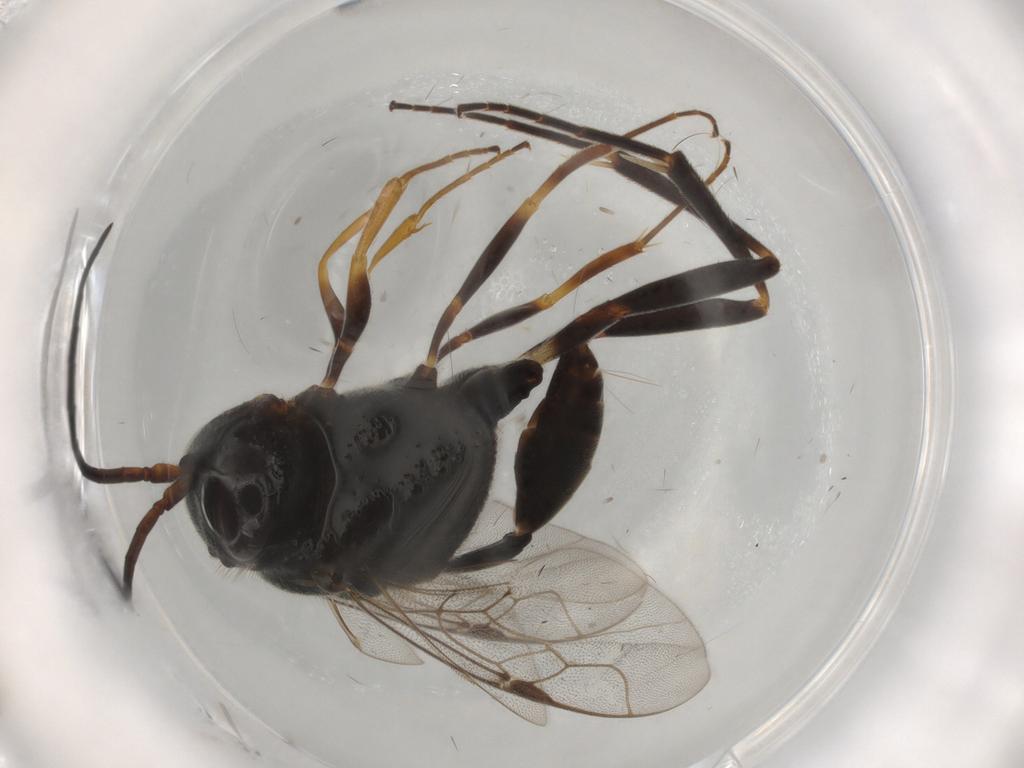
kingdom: Animalia
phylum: Arthropoda
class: Insecta
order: Hymenoptera
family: Evaniidae
